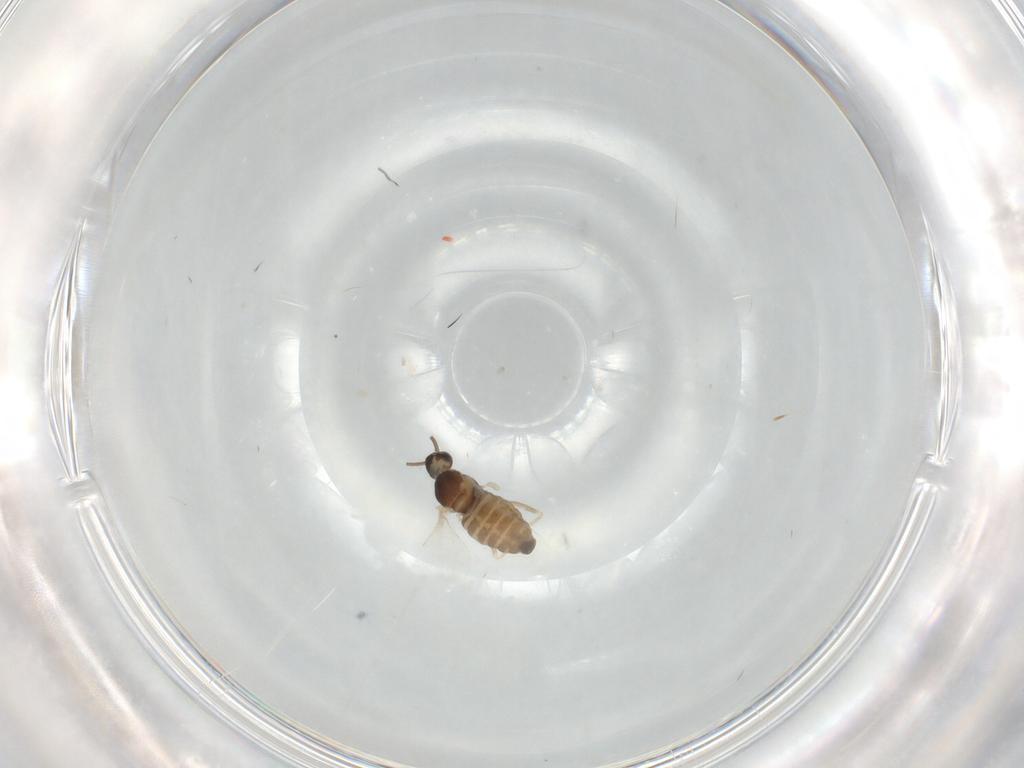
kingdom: Animalia
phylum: Arthropoda
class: Insecta
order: Diptera
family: Cecidomyiidae
